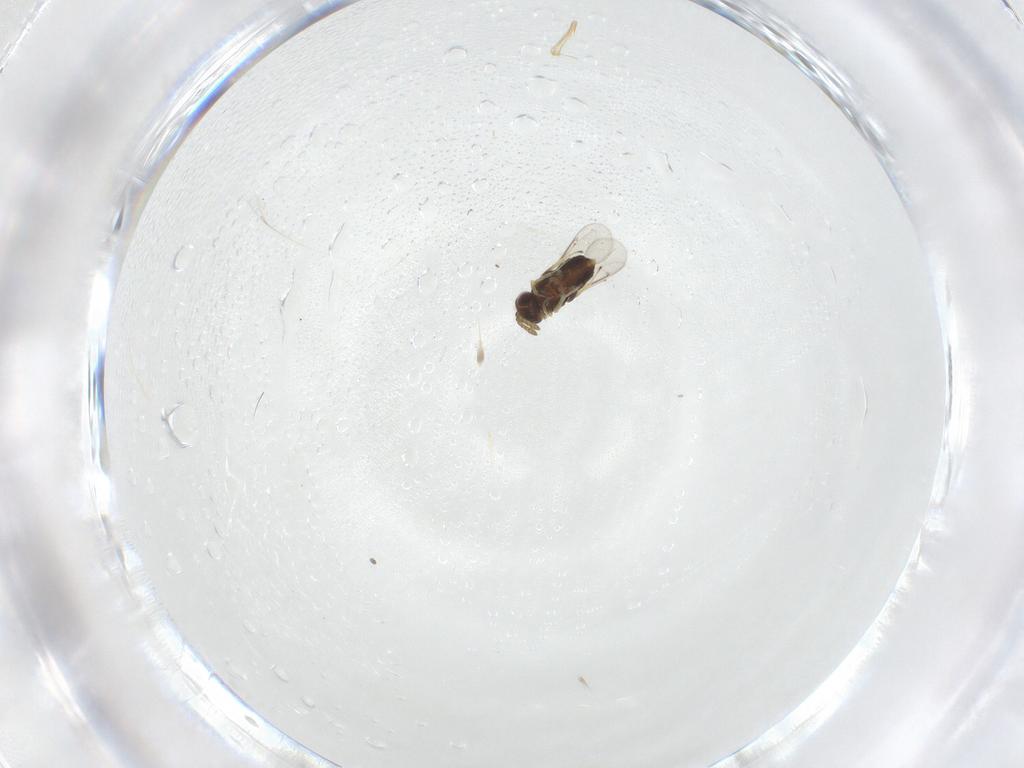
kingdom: Animalia
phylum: Arthropoda
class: Insecta
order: Hymenoptera
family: Aphelinidae
